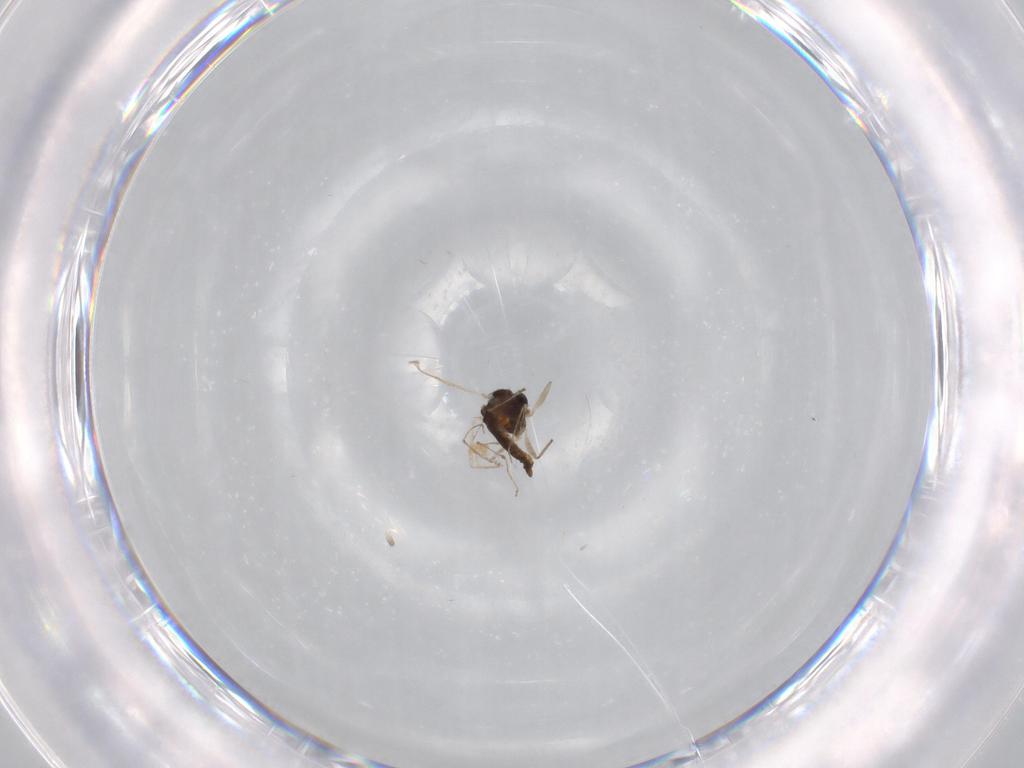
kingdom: Animalia
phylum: Arthropoda
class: Insecta
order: Diptera
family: Chironomidae
